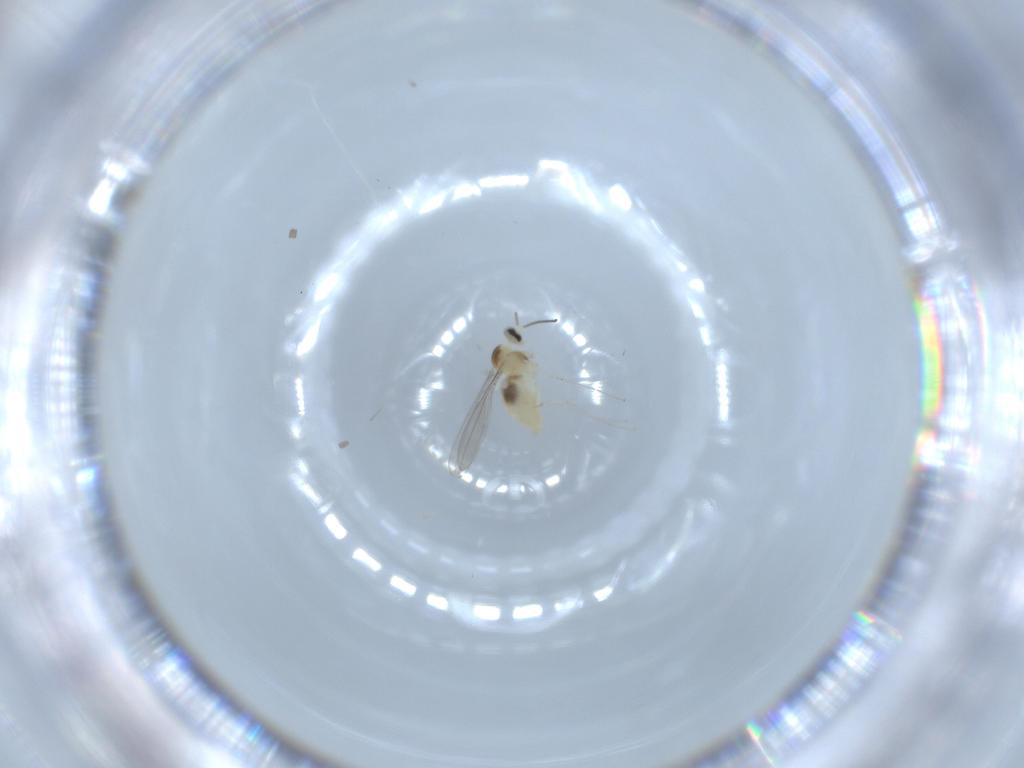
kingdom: Animalia
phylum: Arthropoda
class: Insecta
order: Diptera
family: Cecidomyiidae
